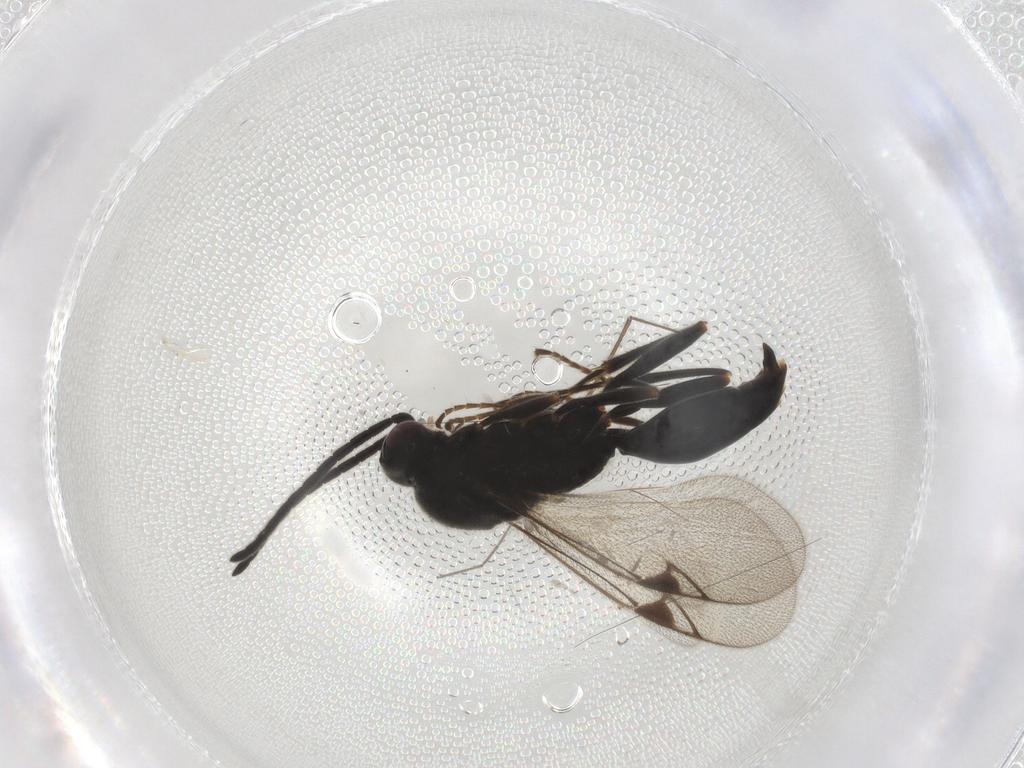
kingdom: Animalia
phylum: Arthropoda
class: Insecta
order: Hymenoptera
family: Proctotrupidae
